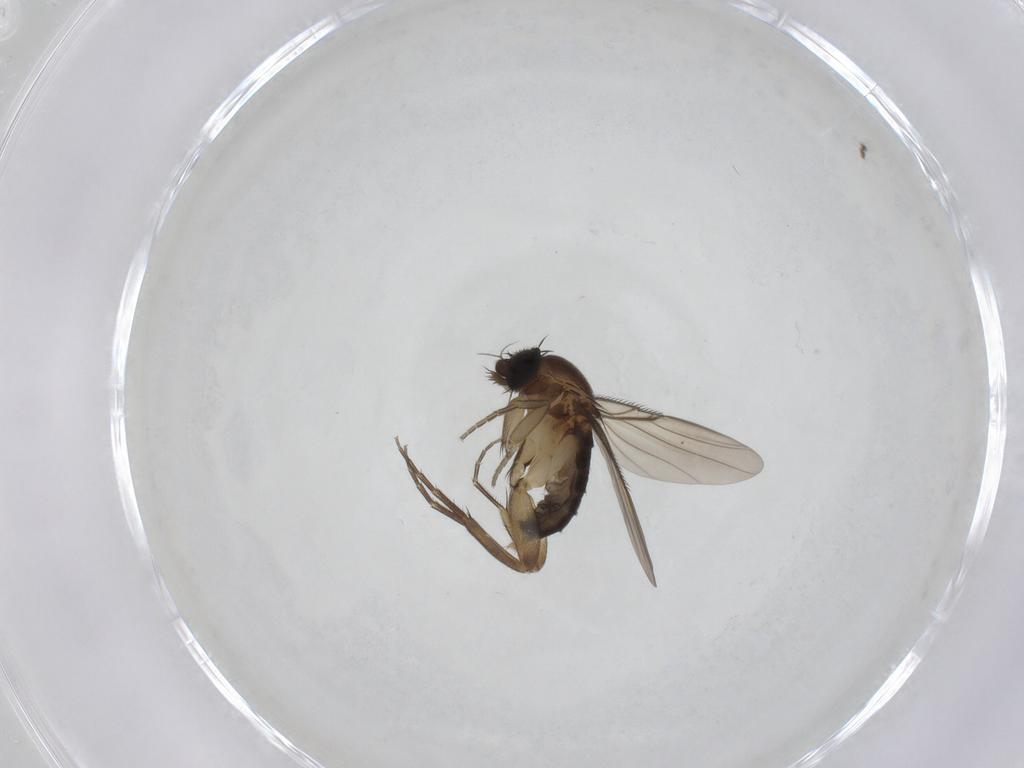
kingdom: Animalia
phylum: Arthropoda
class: Insecta
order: Diptera
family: Phoridae
